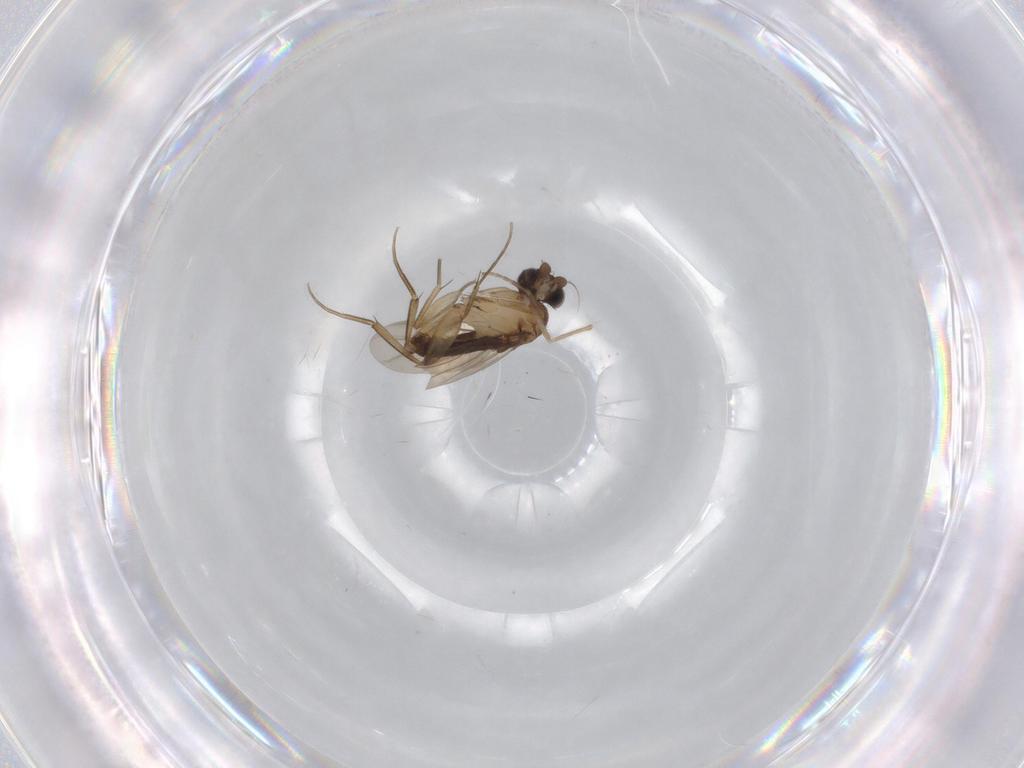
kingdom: Animalia
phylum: Arthropoda
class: Insecta
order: Diptera
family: Phoridae
